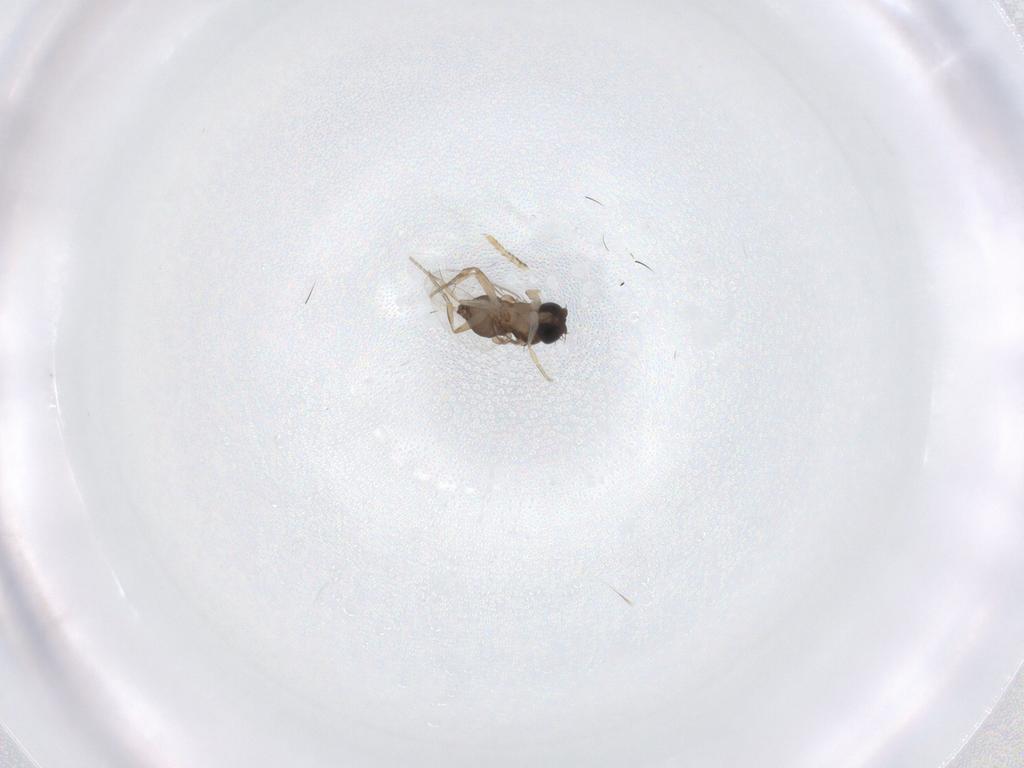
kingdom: Animalia
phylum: Arthropoda
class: Insecta
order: Diptera
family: Phoridae
